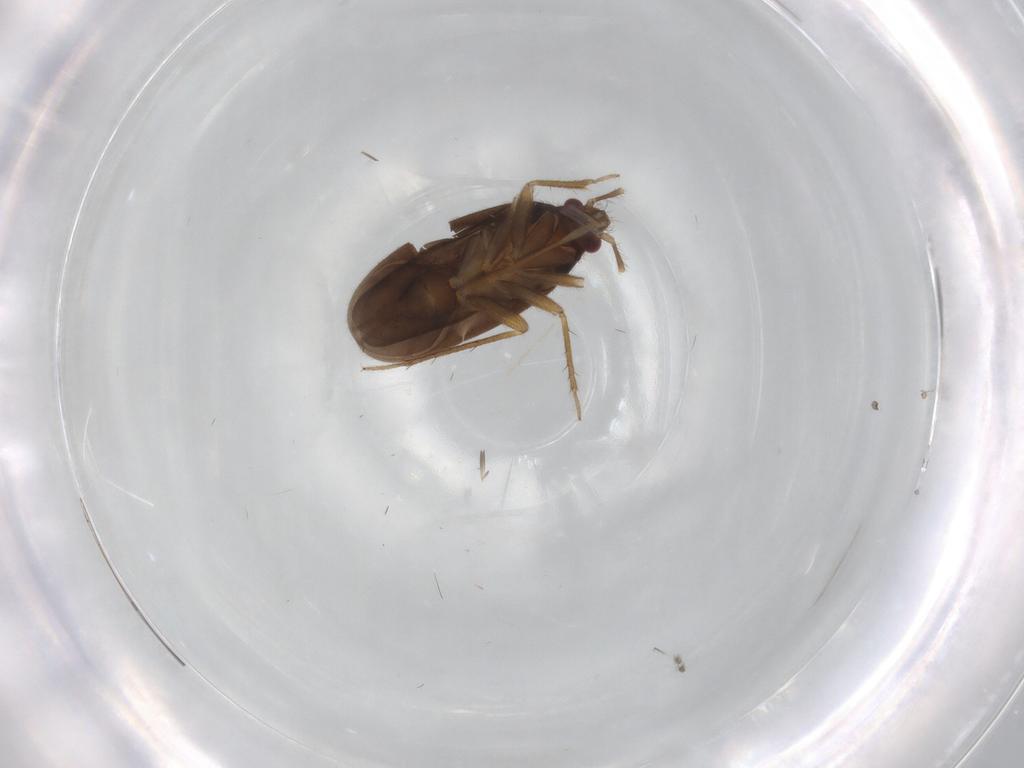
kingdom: Animalia
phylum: Arthropoda
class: Insecta
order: Hemiptera
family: Ceratocombidae
